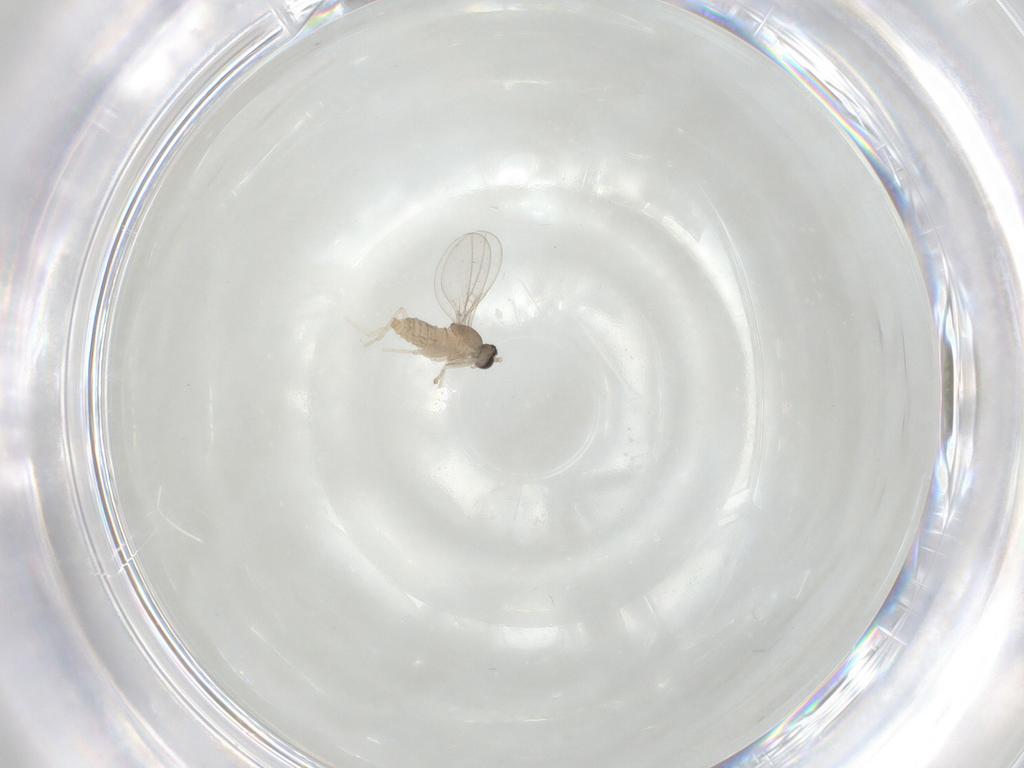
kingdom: Animalia
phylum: Arthropoda
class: Insecta
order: Diptera
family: Cecidomyiidae
